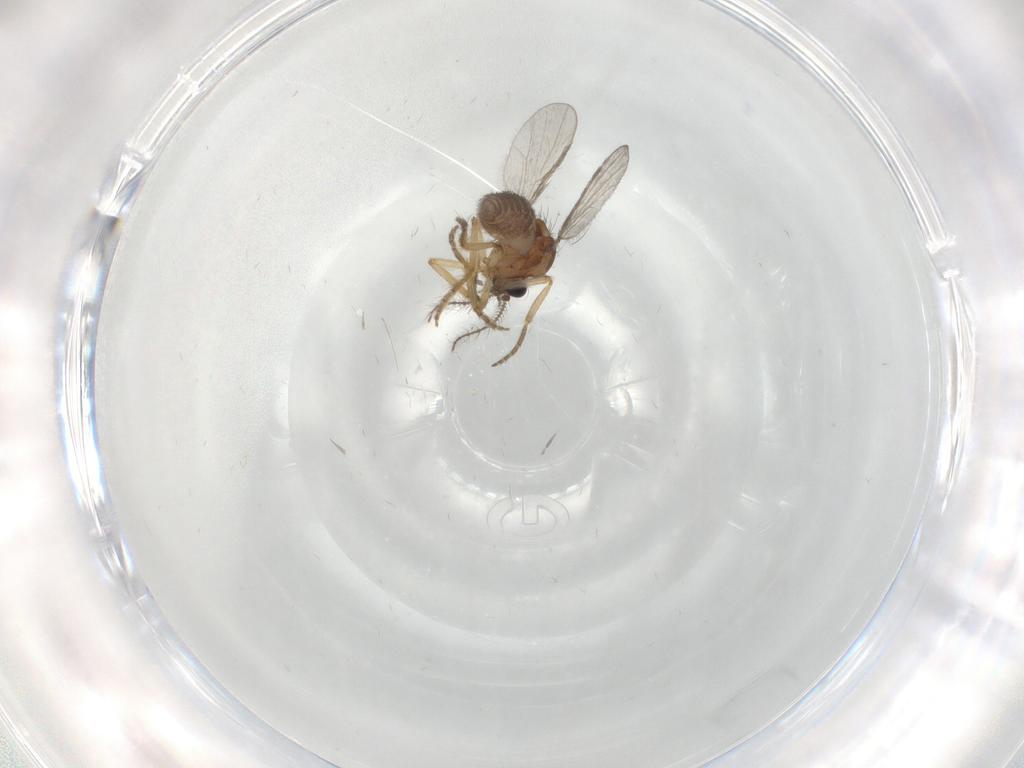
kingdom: Animalia
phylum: Arthropoda
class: Insecta
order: Diptera
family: Ceratopogonidae
